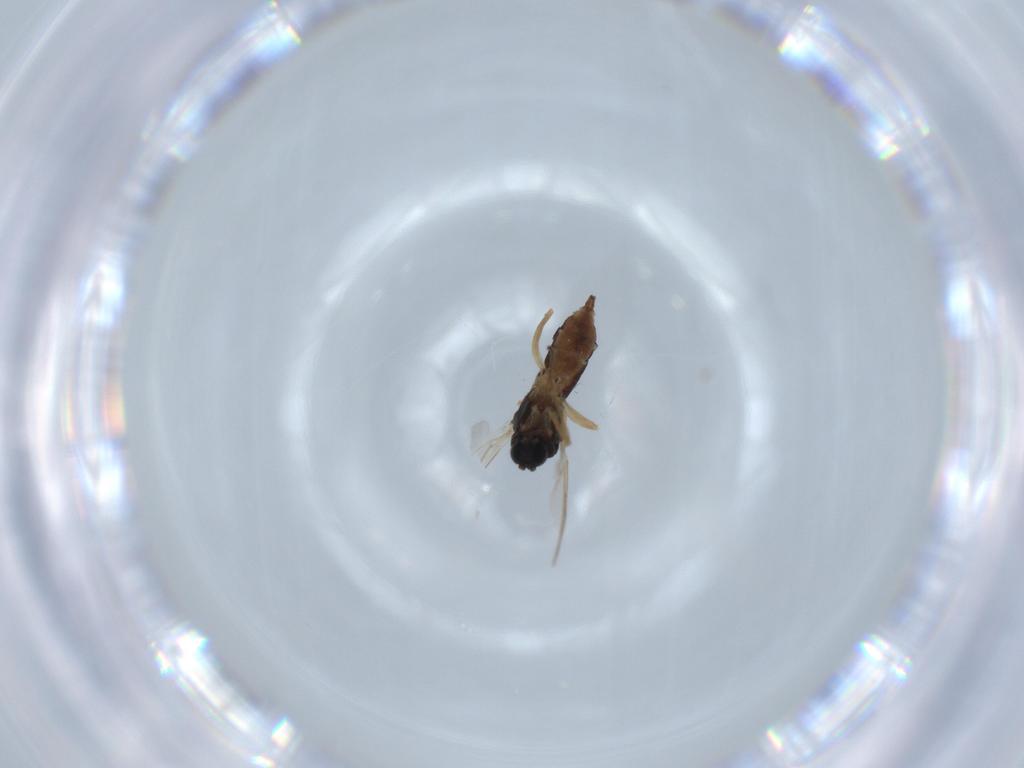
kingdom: Animalia
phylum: Arthropoda
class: Insecta
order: Diptera
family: Sciaridae
